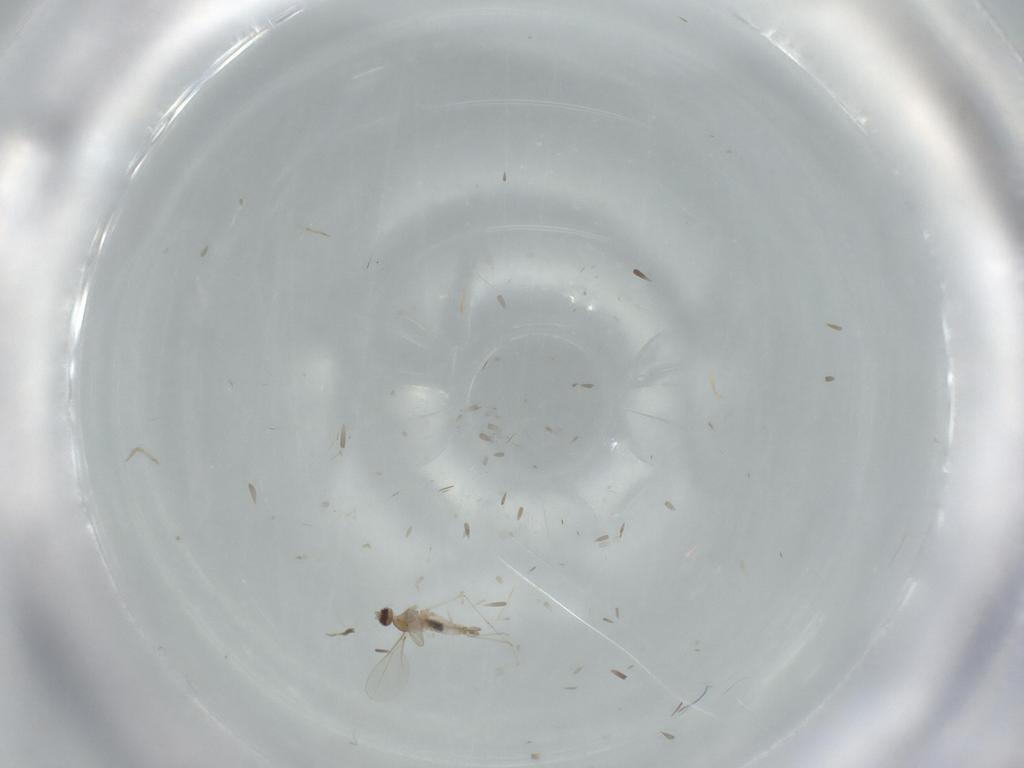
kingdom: Animalia
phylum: Arthropoda
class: Insecta
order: Diptera
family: Cecidomyiidae
